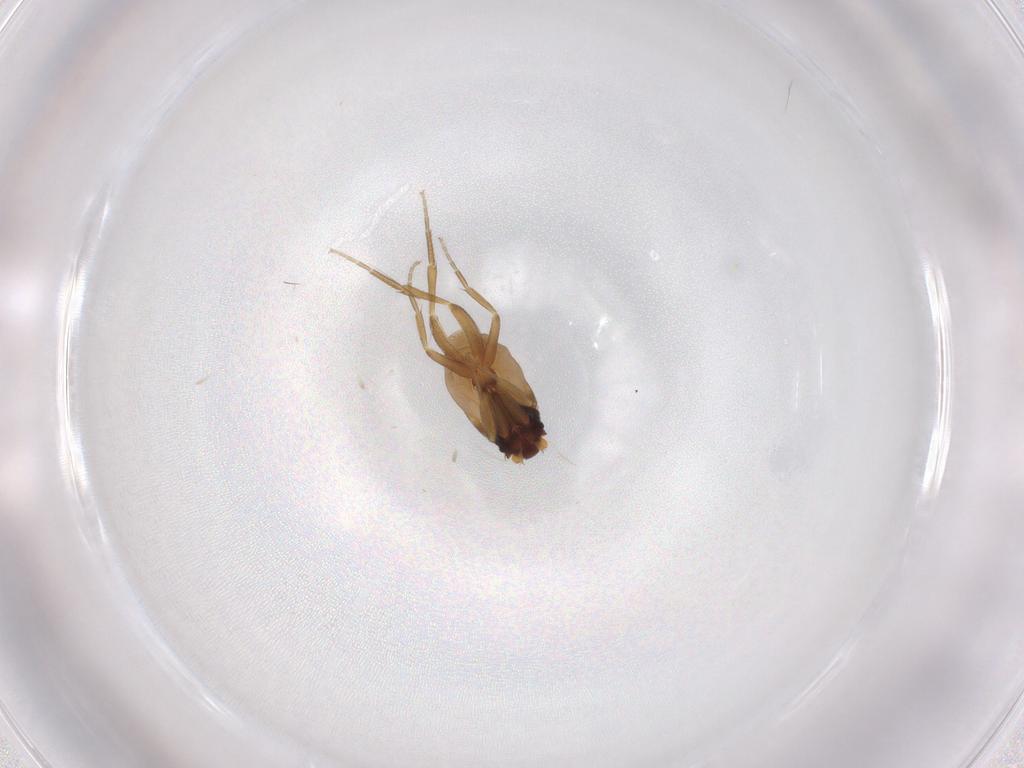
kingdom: Animalia
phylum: Arthropoda
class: Insecta
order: Diptera
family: Phoridae
